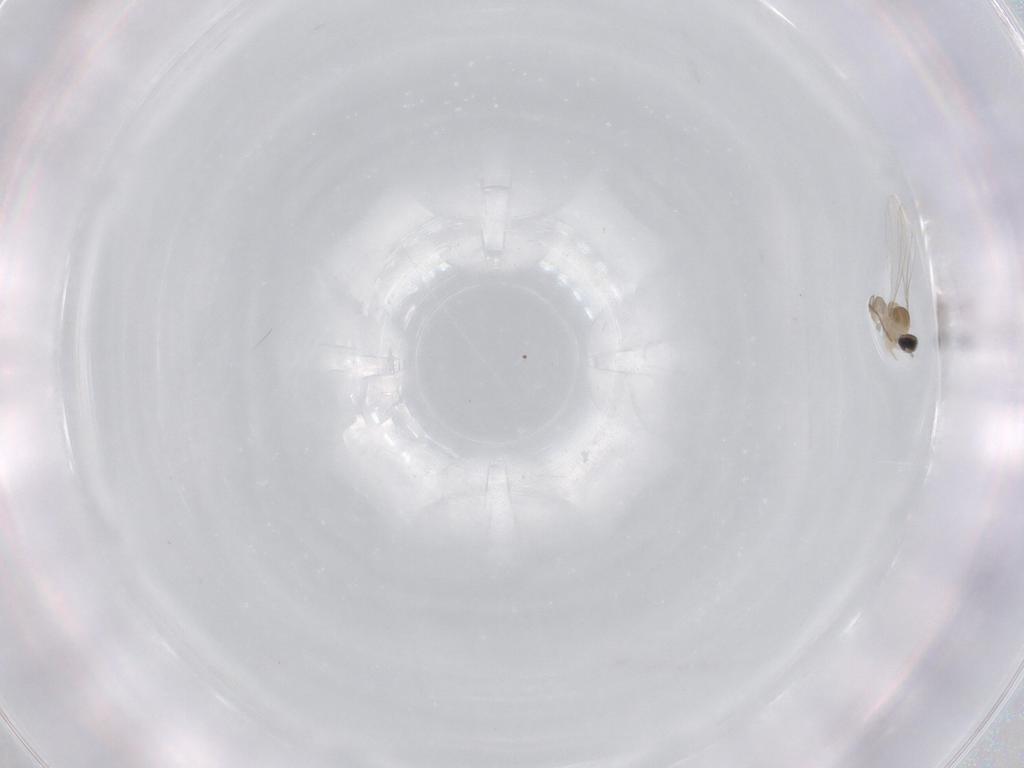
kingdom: Animalia
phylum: Arthropoda
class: Insecta
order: Diptera
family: Cecidomyiidae
